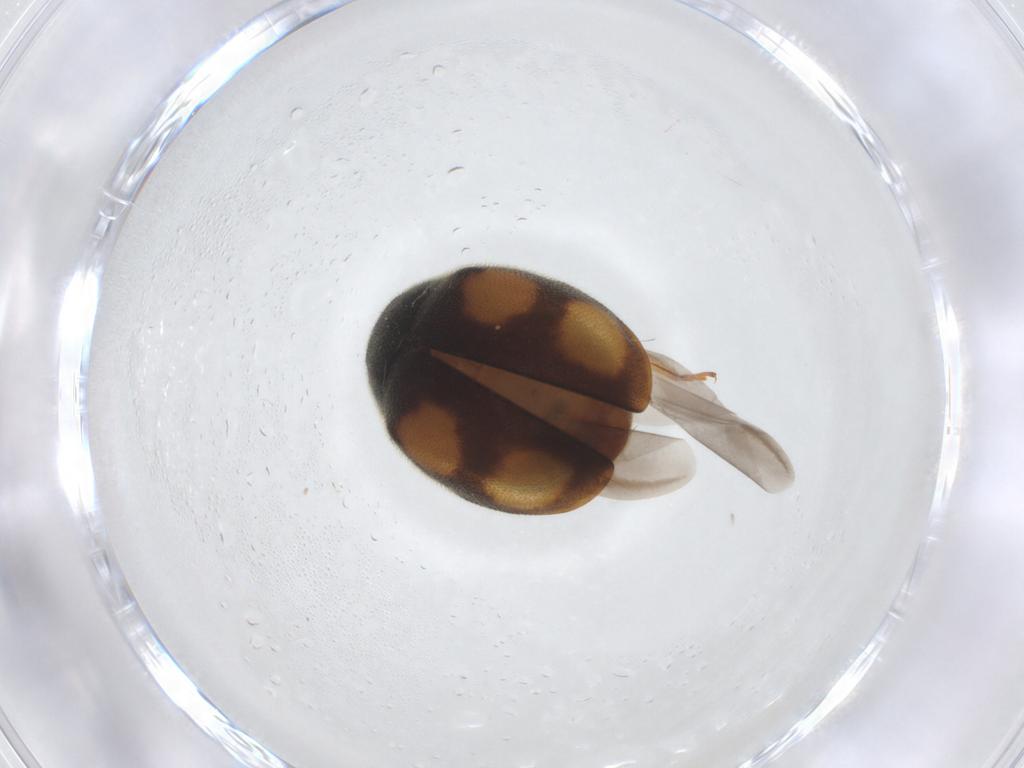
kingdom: Animalia
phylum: Arthropoda
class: Insecta
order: Coleoptera
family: Coccinellidae
